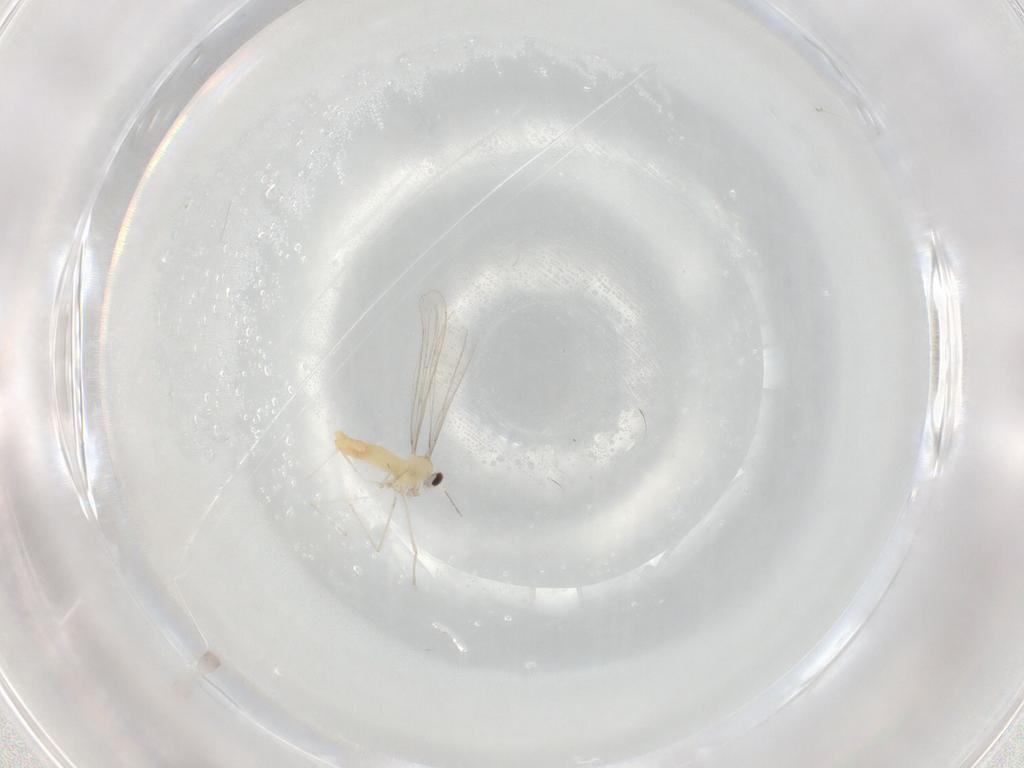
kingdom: Animalia
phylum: Arthropoda
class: Insecta
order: Diptera
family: Cecidomyiidae
